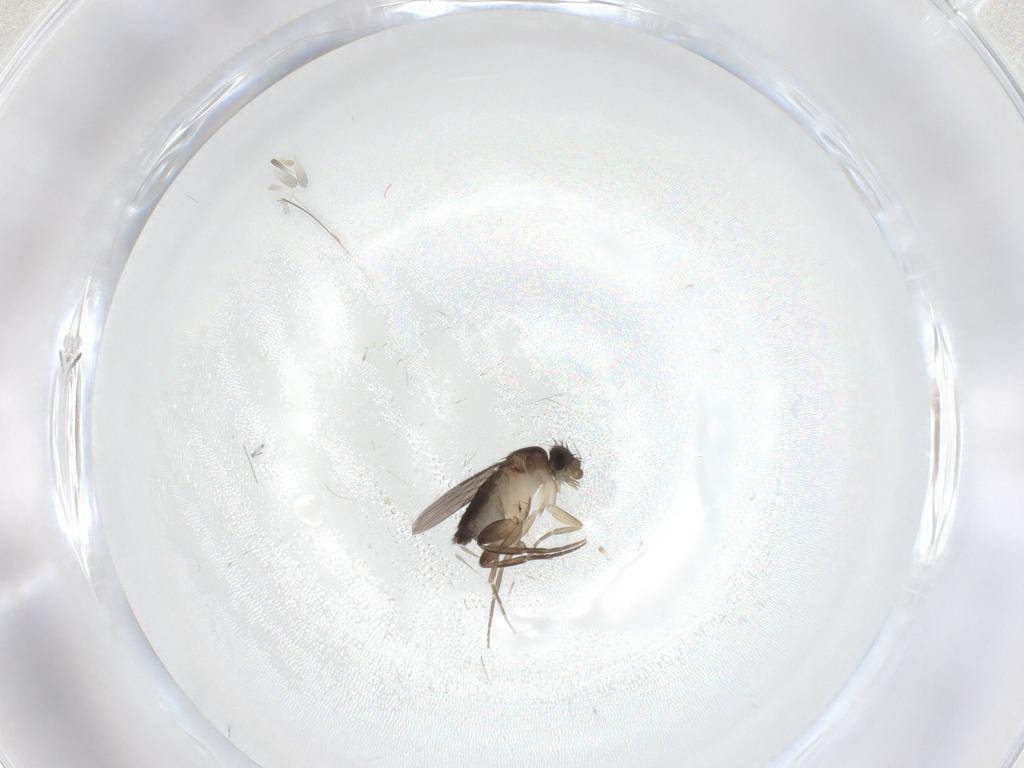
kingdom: Animalia
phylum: Arthropoda
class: Insecta
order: Diptera
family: Phoridae
